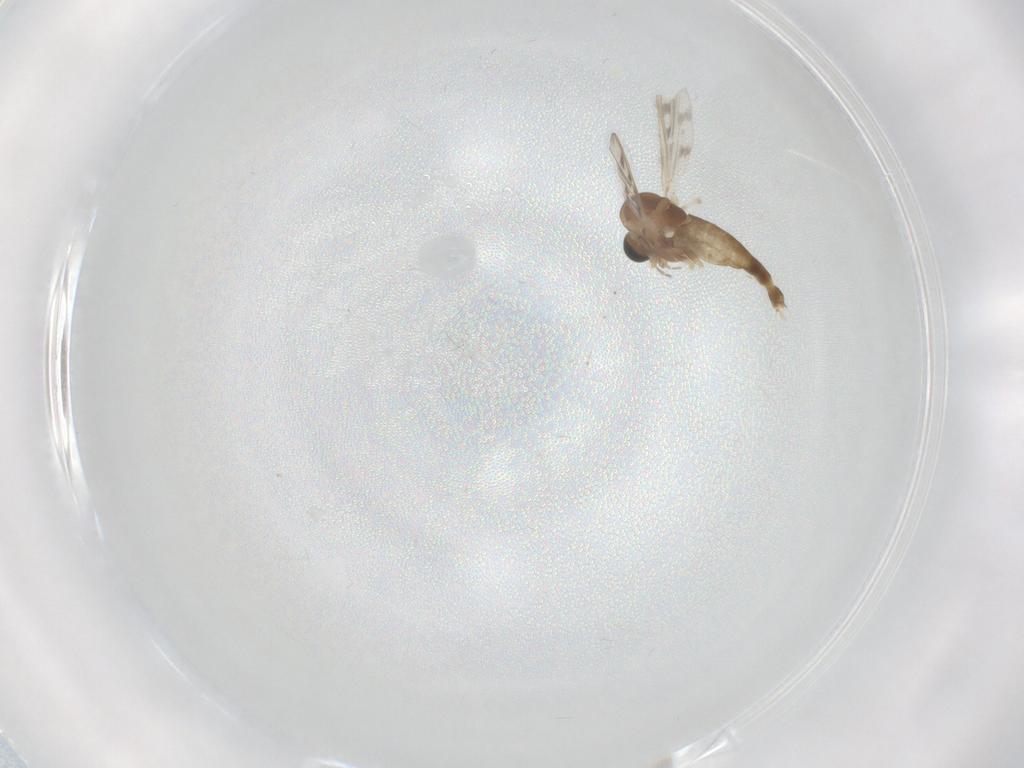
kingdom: Animalia
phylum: Arthropoda
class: Insecta
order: Diptera
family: Chironomidae
